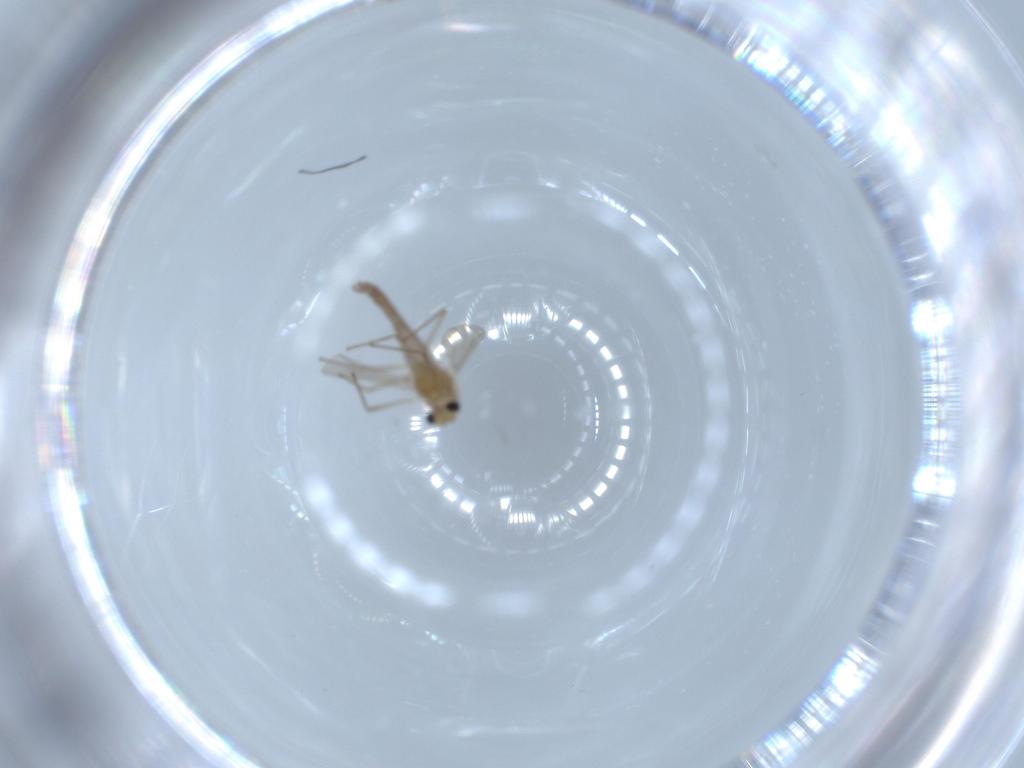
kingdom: Animalia
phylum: Arthropoda
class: Insecta
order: Diptera
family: Chironomidae
